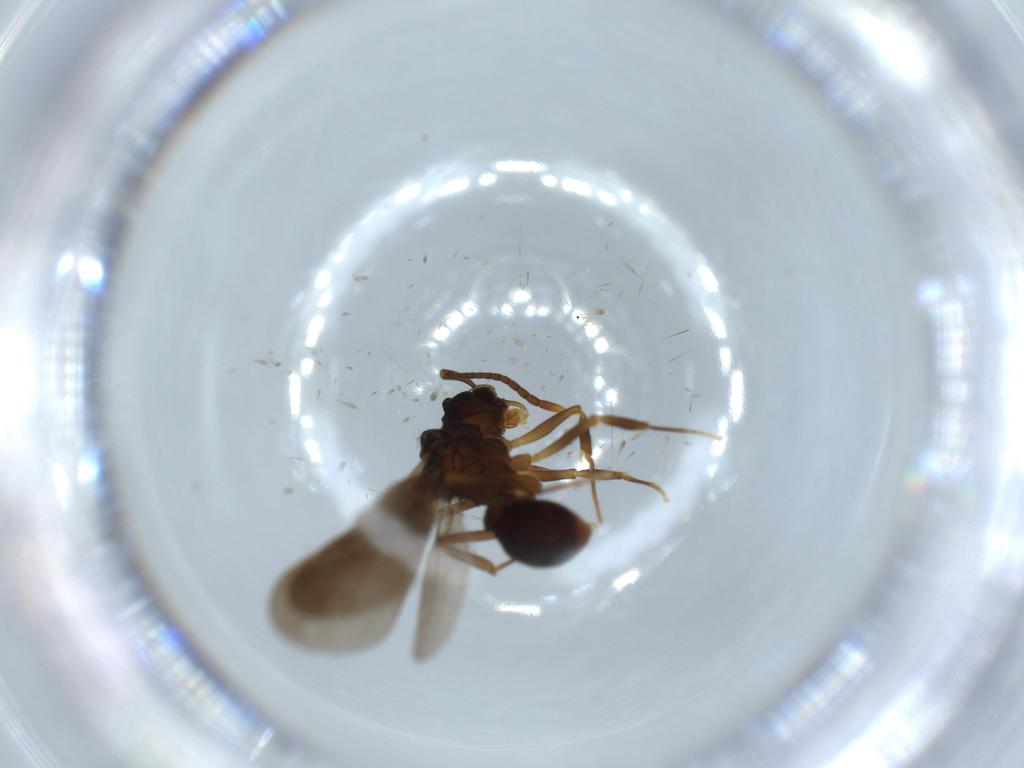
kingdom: Animalia
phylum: Arthropoda
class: Insecta
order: Hymenoptera
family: Formicidae
